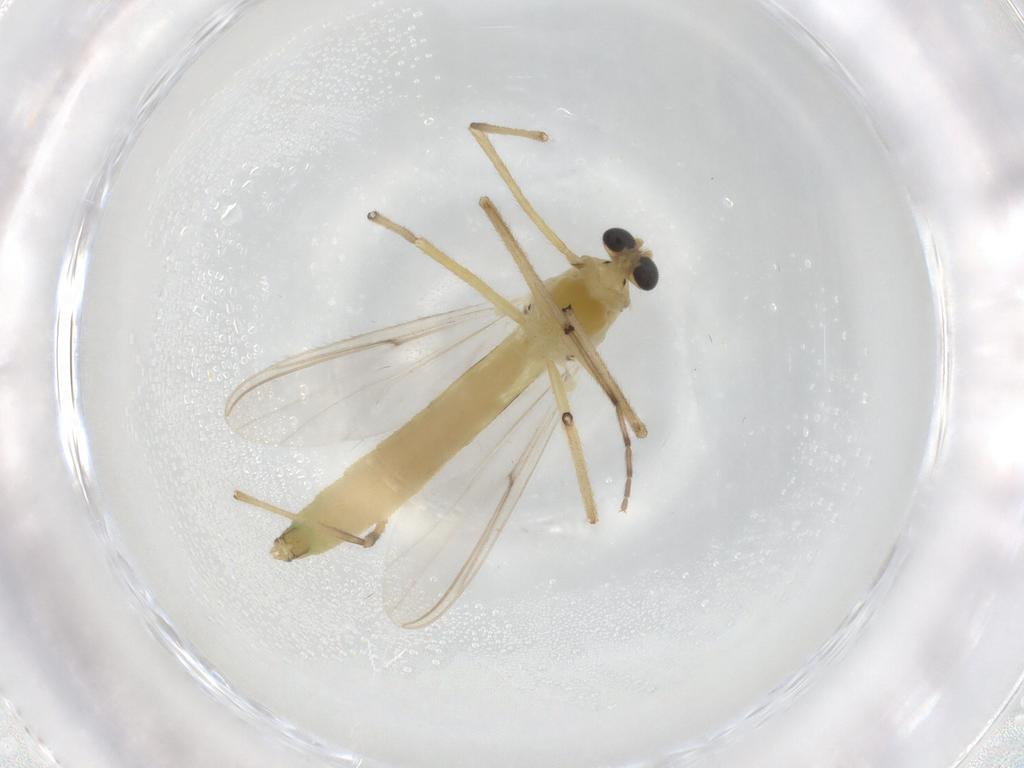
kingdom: Animalia
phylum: Arthropoda
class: Insecta
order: Diptera
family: Chironomidae
